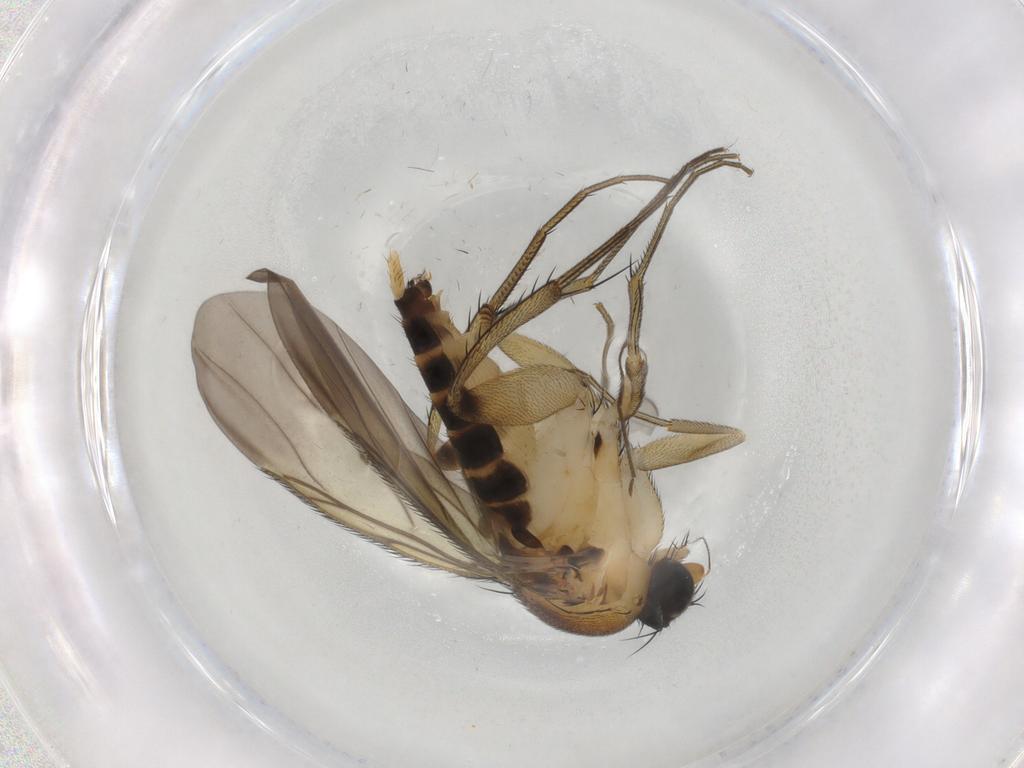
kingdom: Animalia
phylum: Arthropoda
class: Insecta
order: Diptera
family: Phoridae
